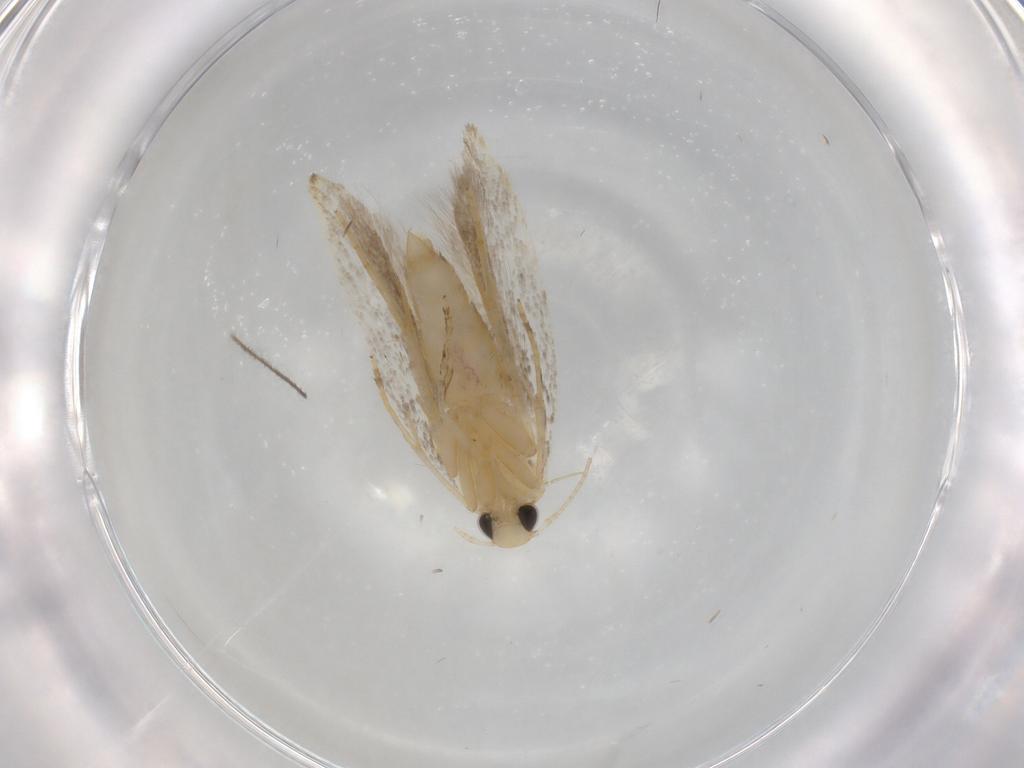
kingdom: Animalia
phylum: Arthropoda
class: Insecta
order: Lepidoptera
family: Autostichidae
